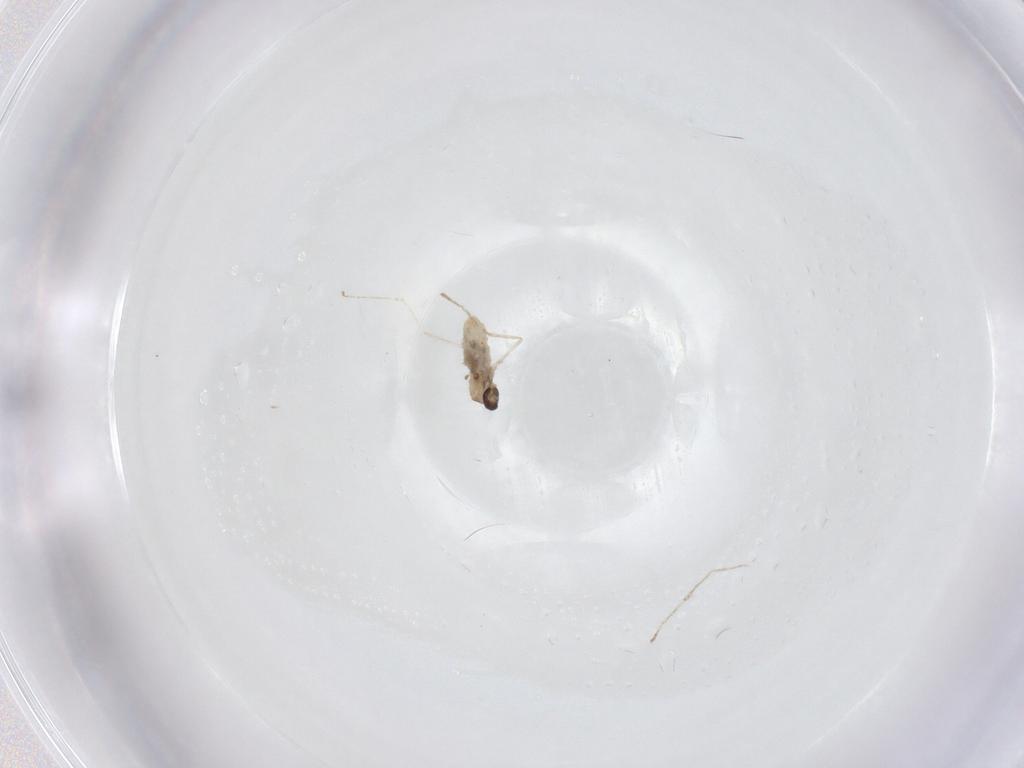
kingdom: Animalia
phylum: Arthropoda
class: Insecta
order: Diptera
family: Cecidomyiidae
